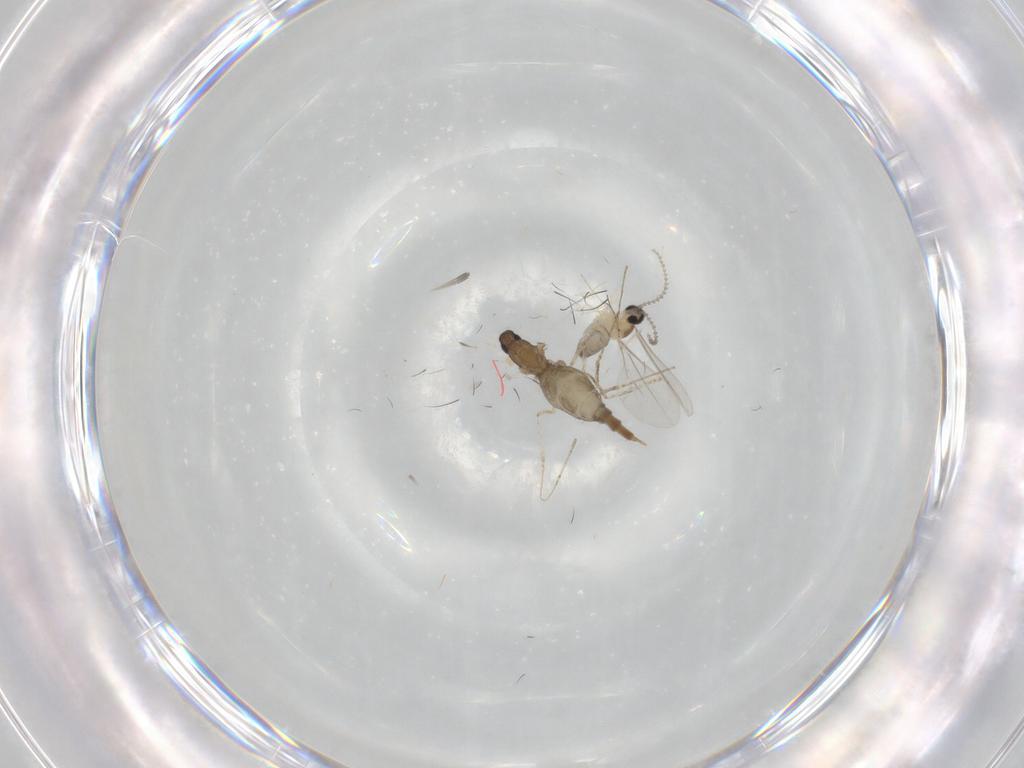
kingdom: Animalia
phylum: Arthropoda
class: Insecta
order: Diptera
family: Cecidomyiidae
